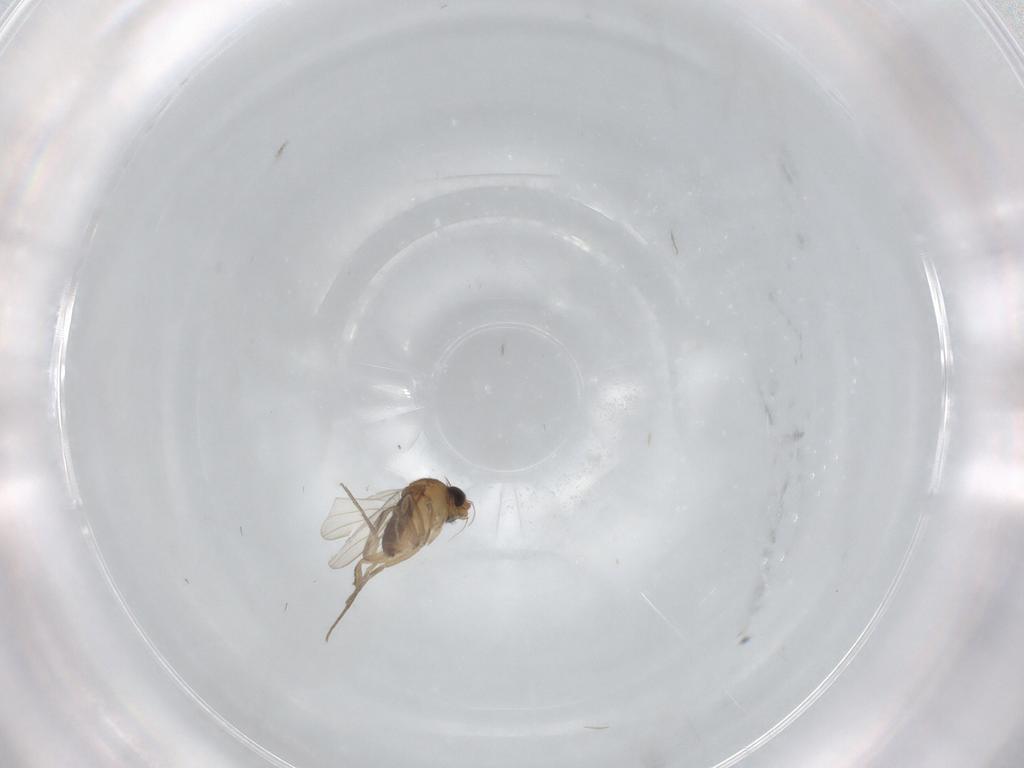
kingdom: Animalia
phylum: Arthropoda
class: Insecta
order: Diptera
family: Phoridae
